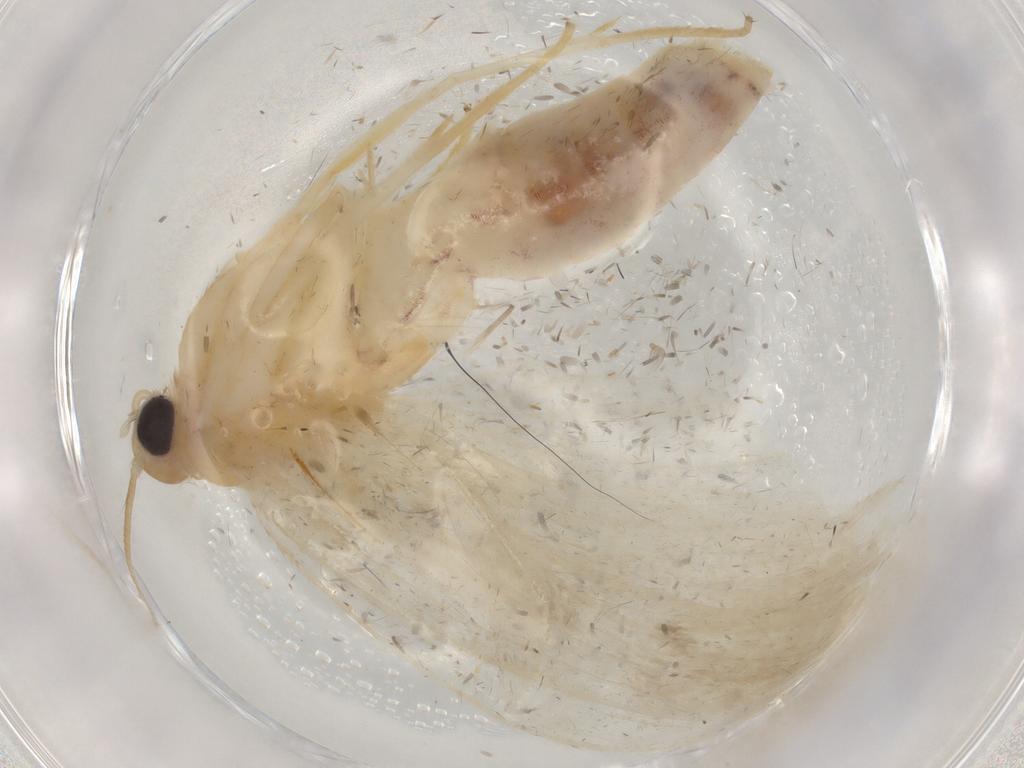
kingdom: Animalia
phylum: Arthropoda
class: Insecta
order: Lepidoptera
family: Crambidae
